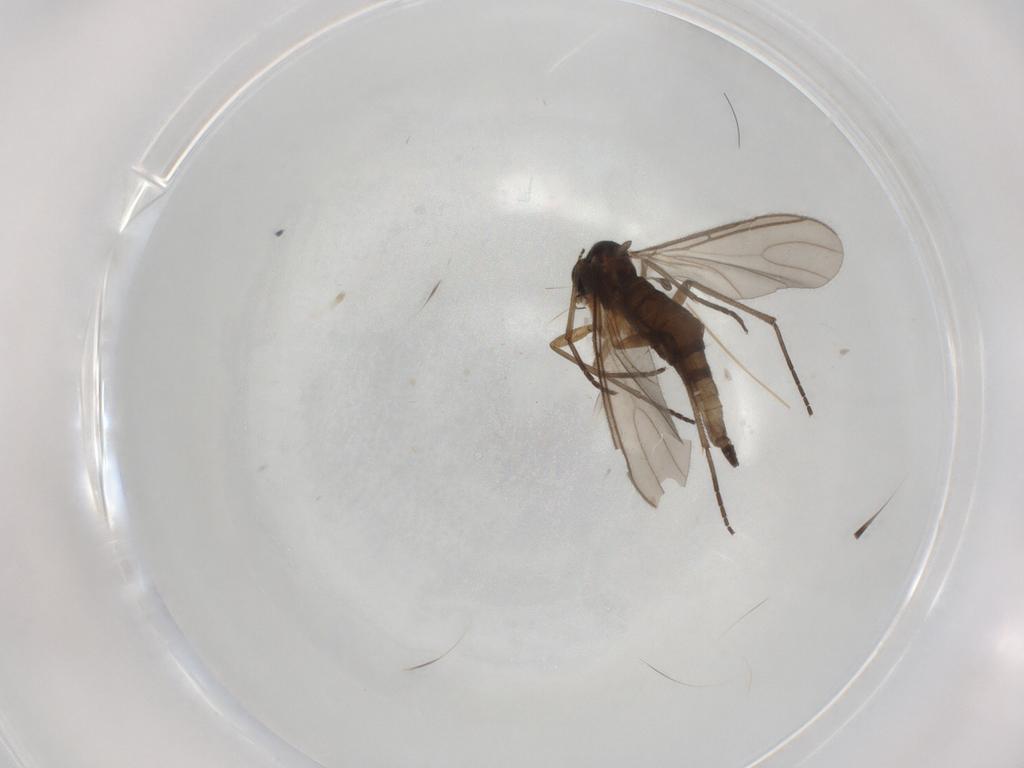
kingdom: Animalia
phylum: Arthropoda
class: Insecta
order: Diptera
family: Sciaridae
